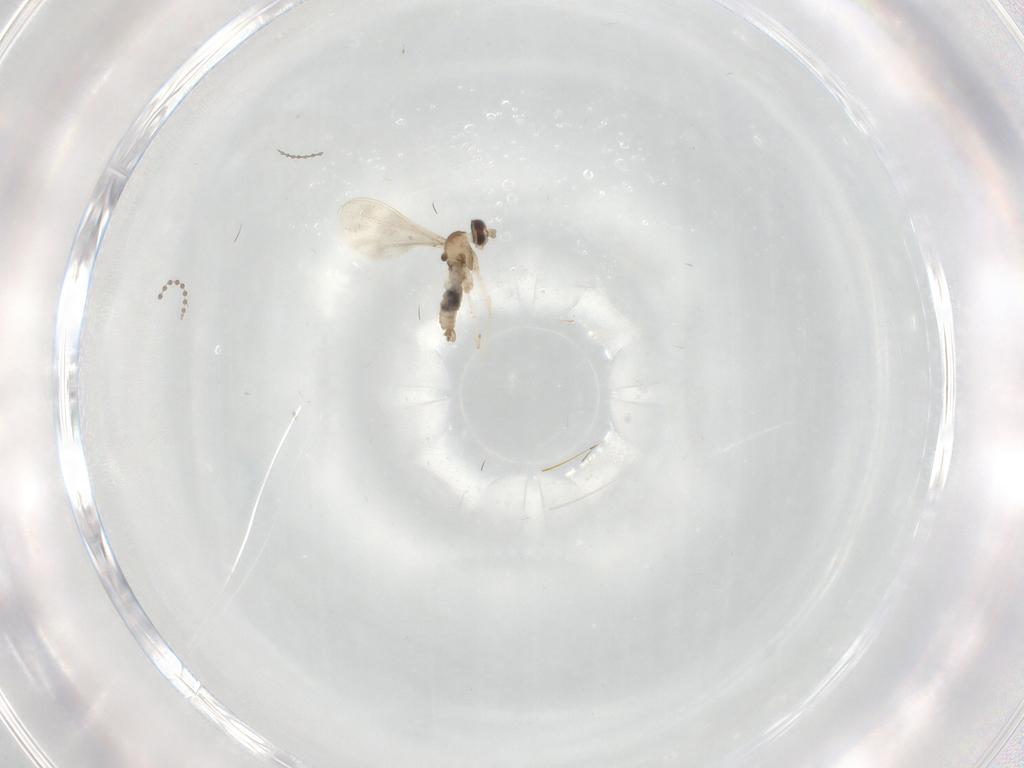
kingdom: Animalia
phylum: Arthropoda
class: Insecta
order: Diptera
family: Cecidomyiidae
